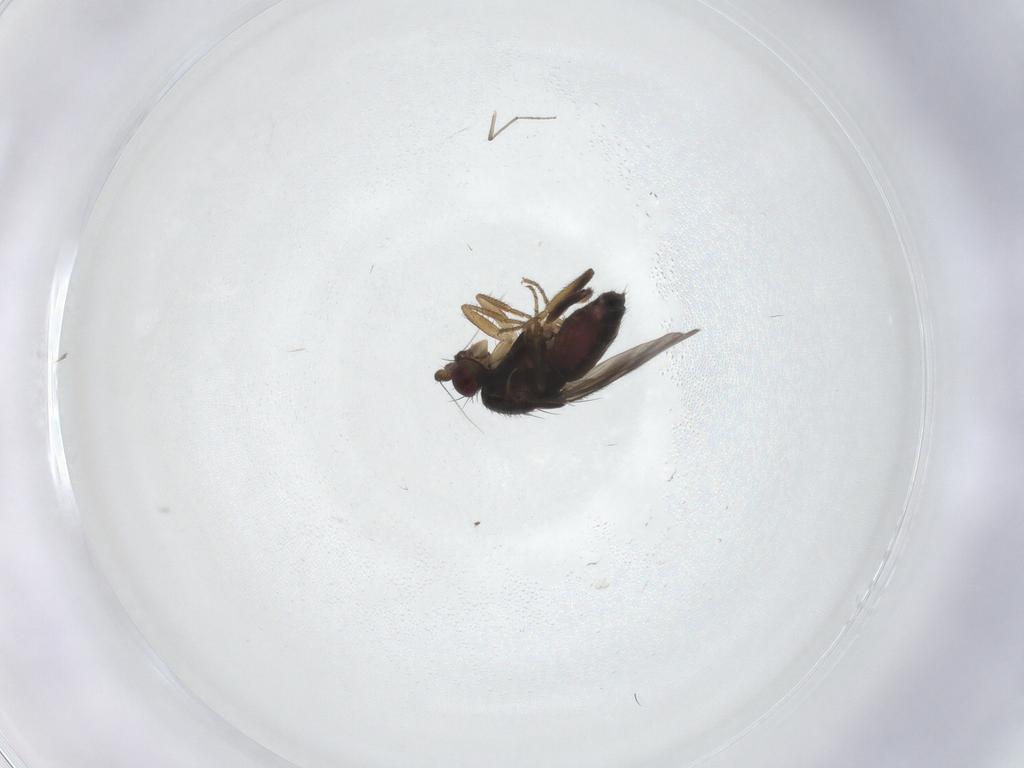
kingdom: Animalia
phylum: Arthropoda
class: Insecta
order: Diptera
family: Sphaeroceridae
